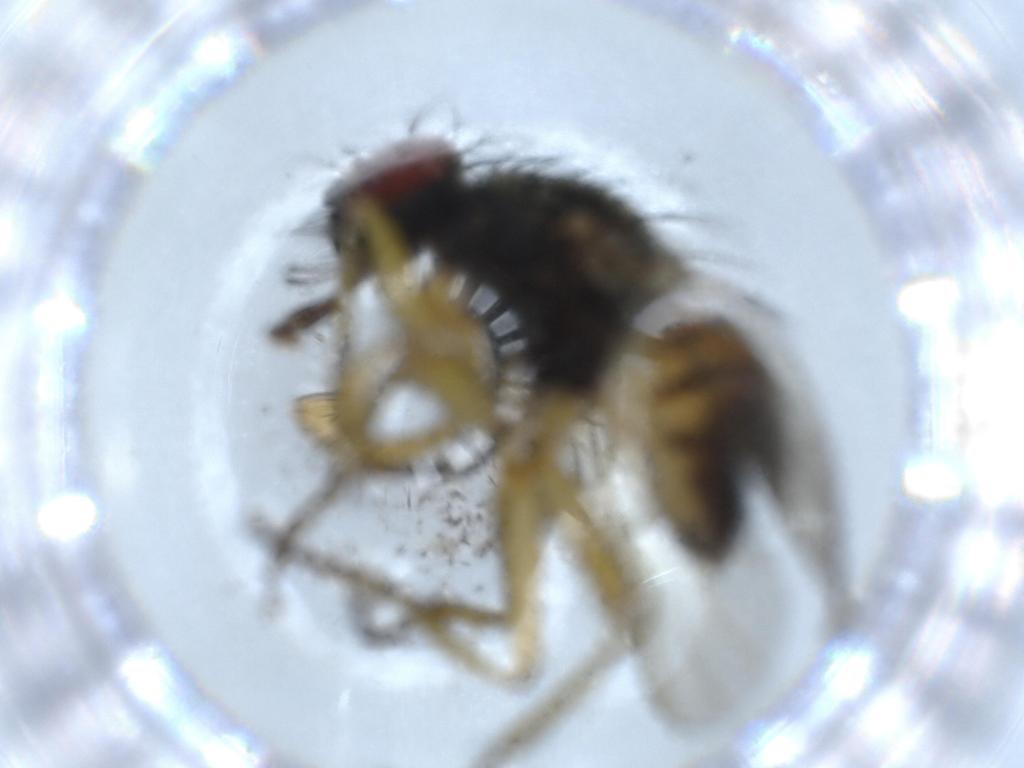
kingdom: Animalia
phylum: Arthropoda
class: Insecta
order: Diptera
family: Muscidae
